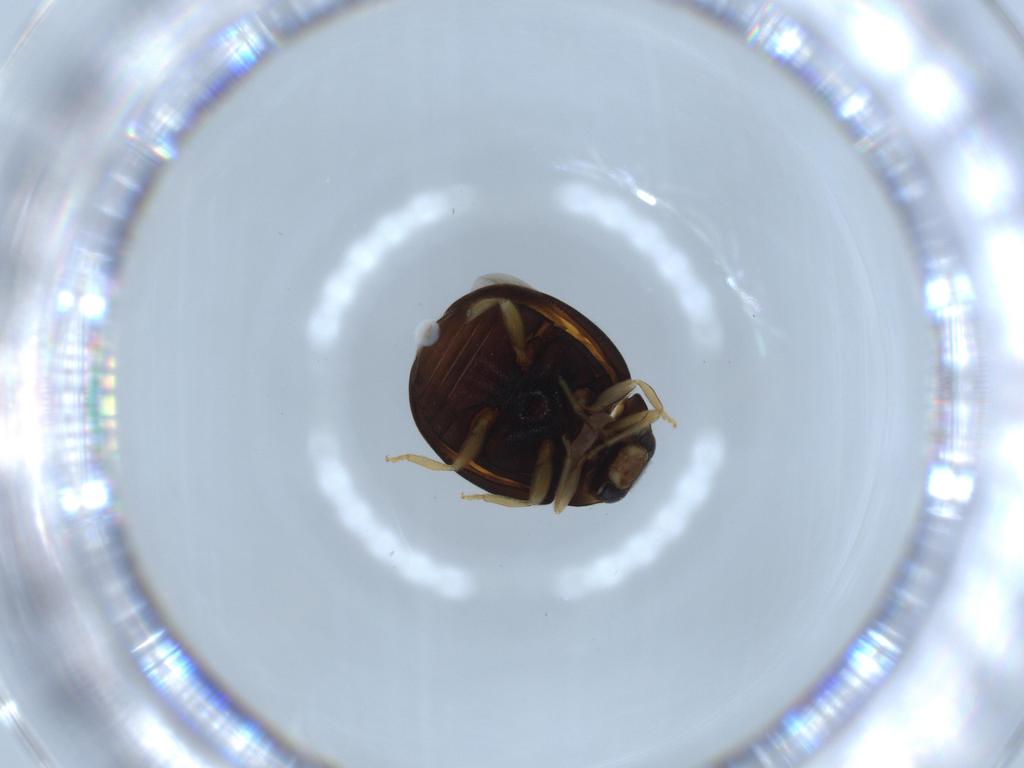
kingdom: Animalia
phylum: Arthropoda
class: Insecta
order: Coleoptera
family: Coccinellidae
